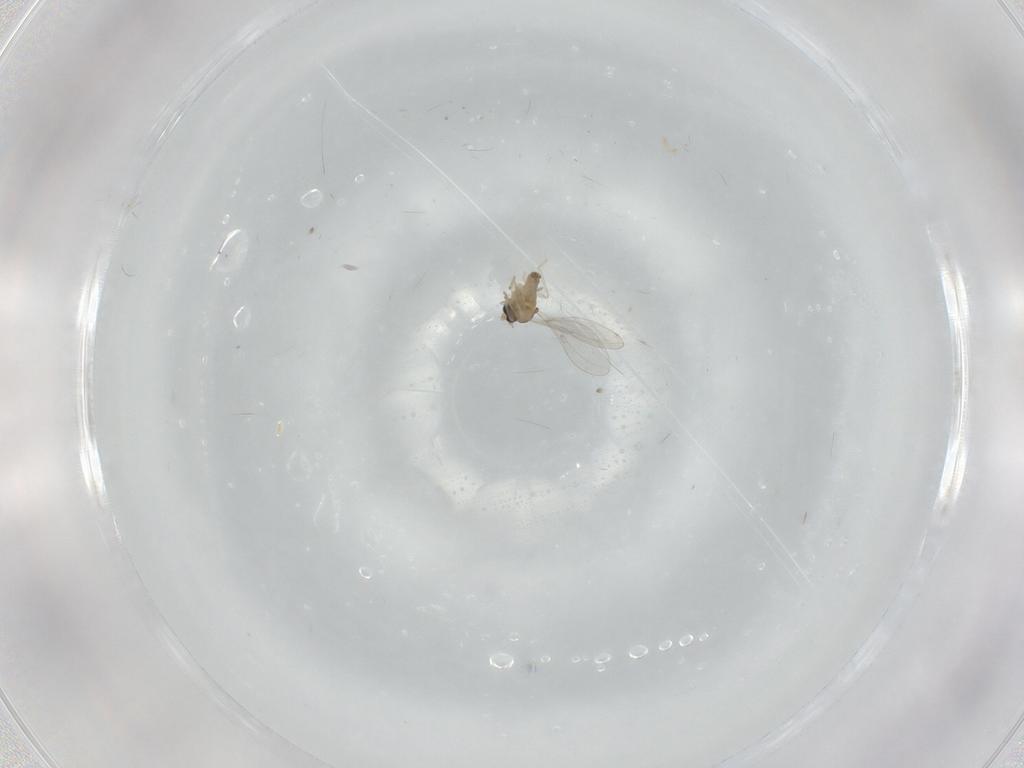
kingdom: Animalia
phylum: Arthropoda
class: Insecta
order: Diptera
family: Cecidomyiidae
